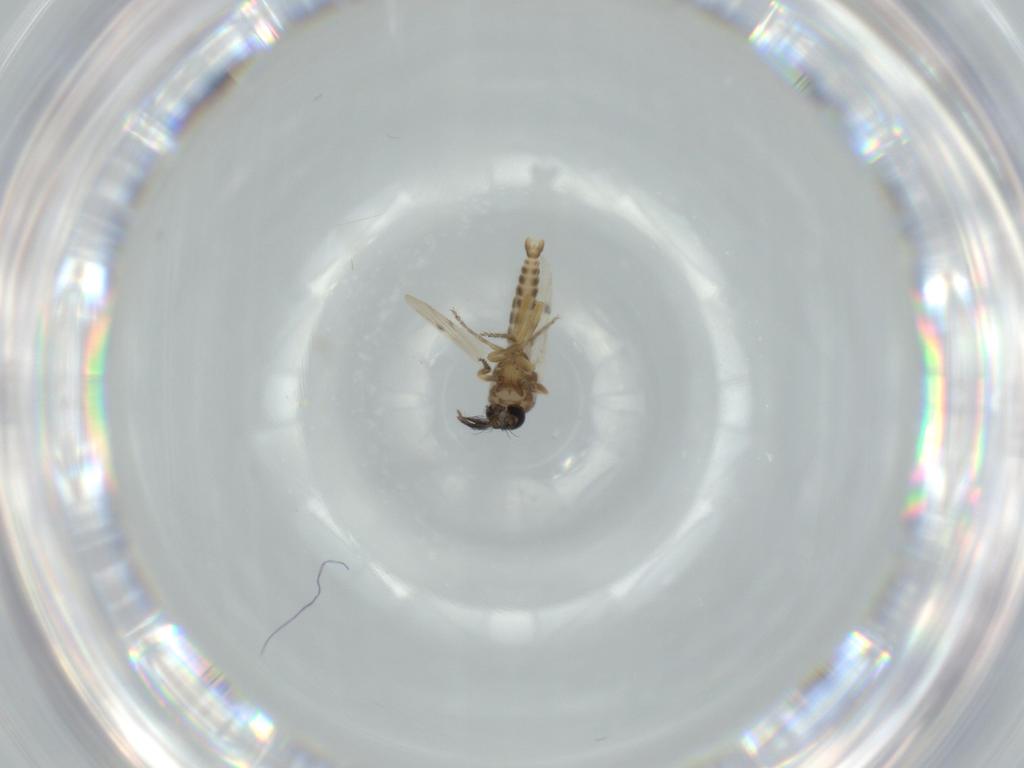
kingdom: Animalia
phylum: Arthropoda
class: Insecta
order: Diptera
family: Ceratopogonidae
